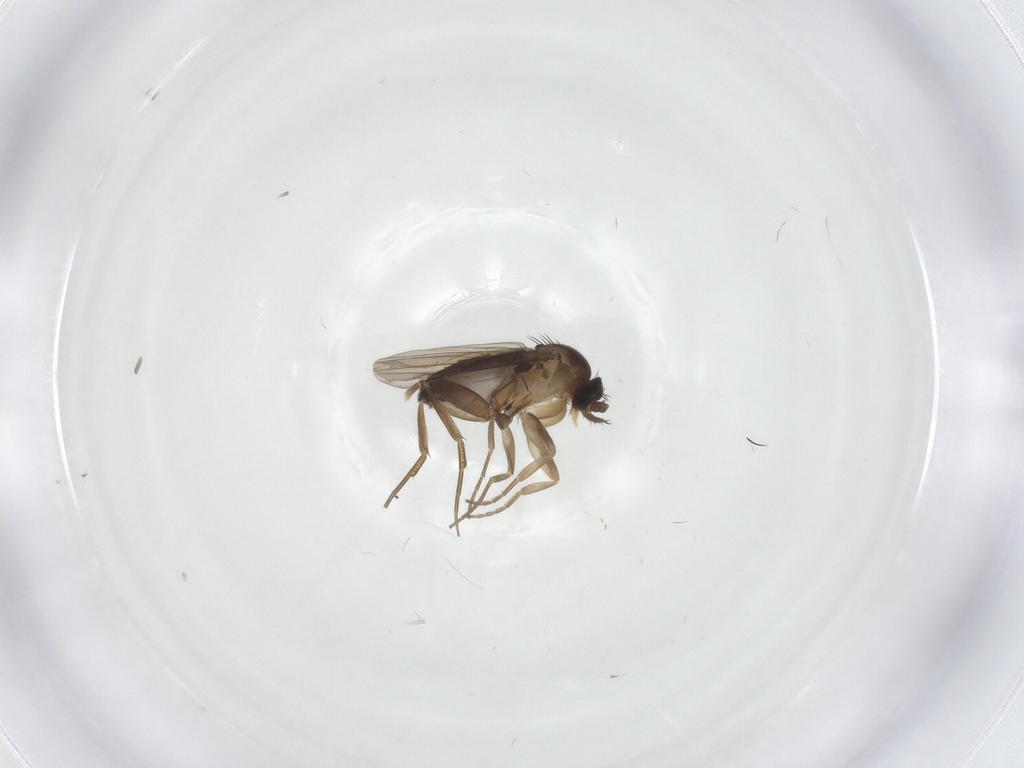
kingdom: Animalia
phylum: Arthropoda
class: Insecta
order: Diptera
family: Phoridae
